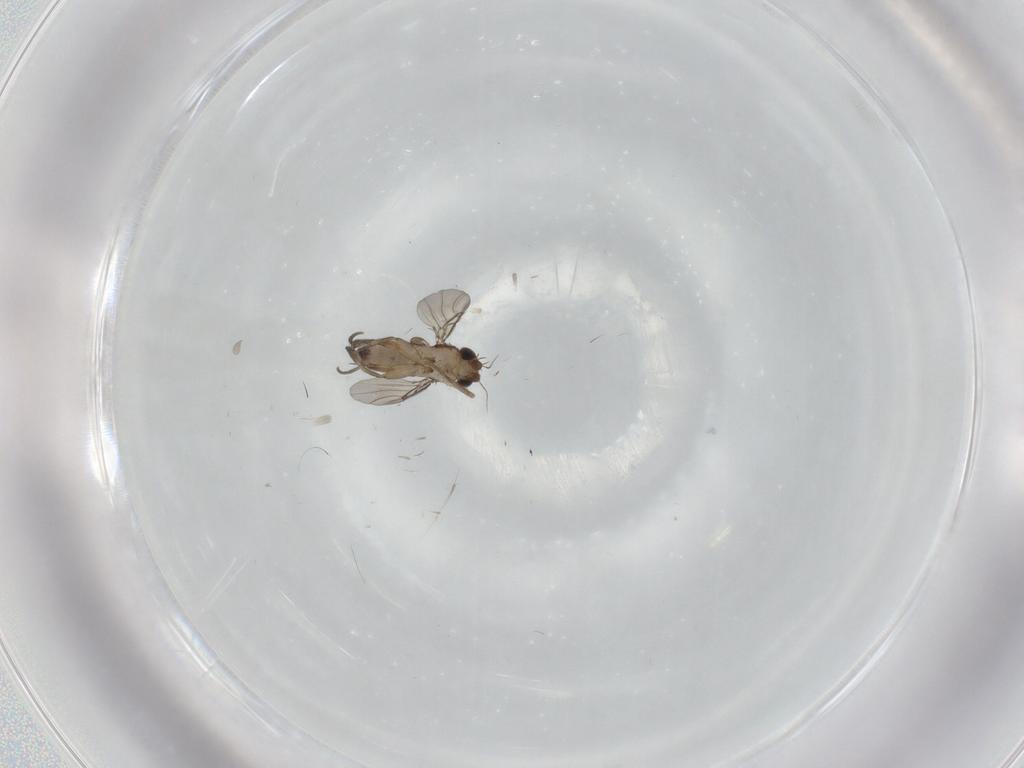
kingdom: Animalia
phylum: Arthropoda
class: Insecta
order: Diptera
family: Phoridae
